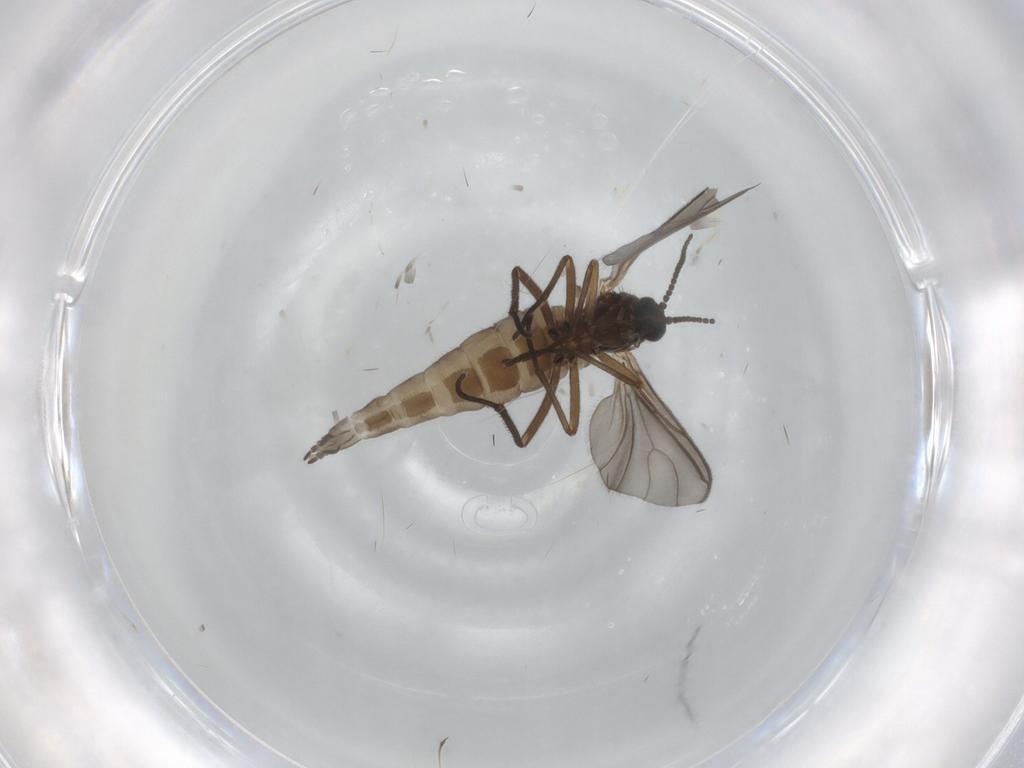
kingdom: Animalia
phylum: Arthropoda
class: Insecta
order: Diptera
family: Sciaridae
